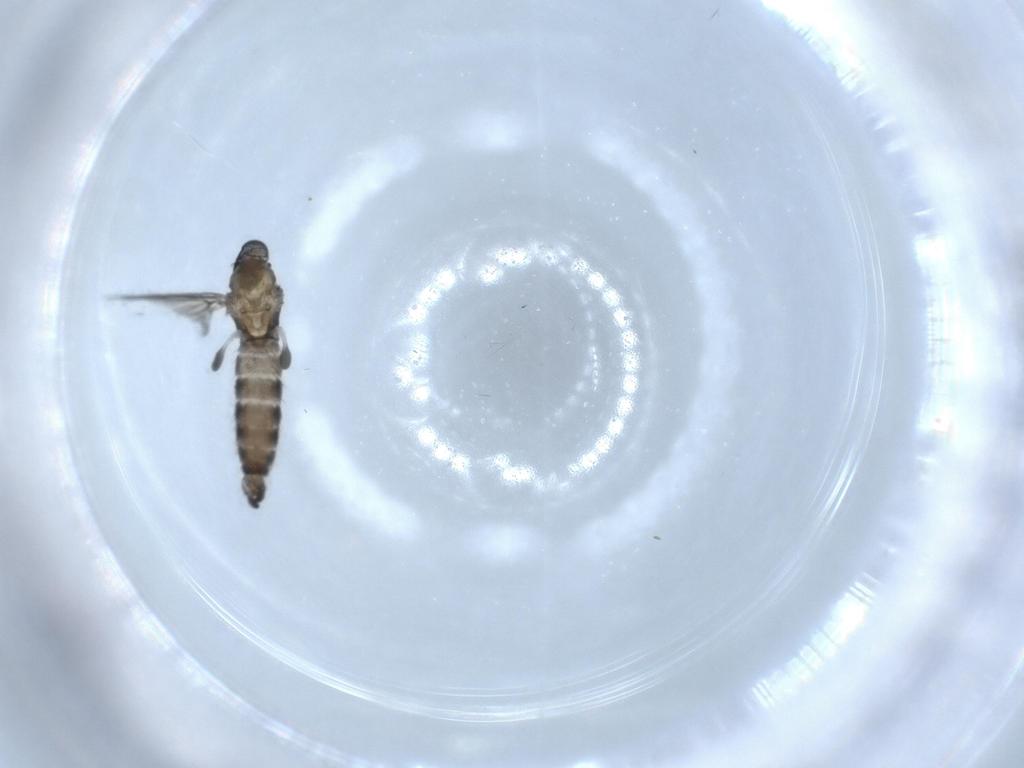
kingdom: Animalia
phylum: Arthropoda
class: Insecta
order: Diptera
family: Sciaridae
